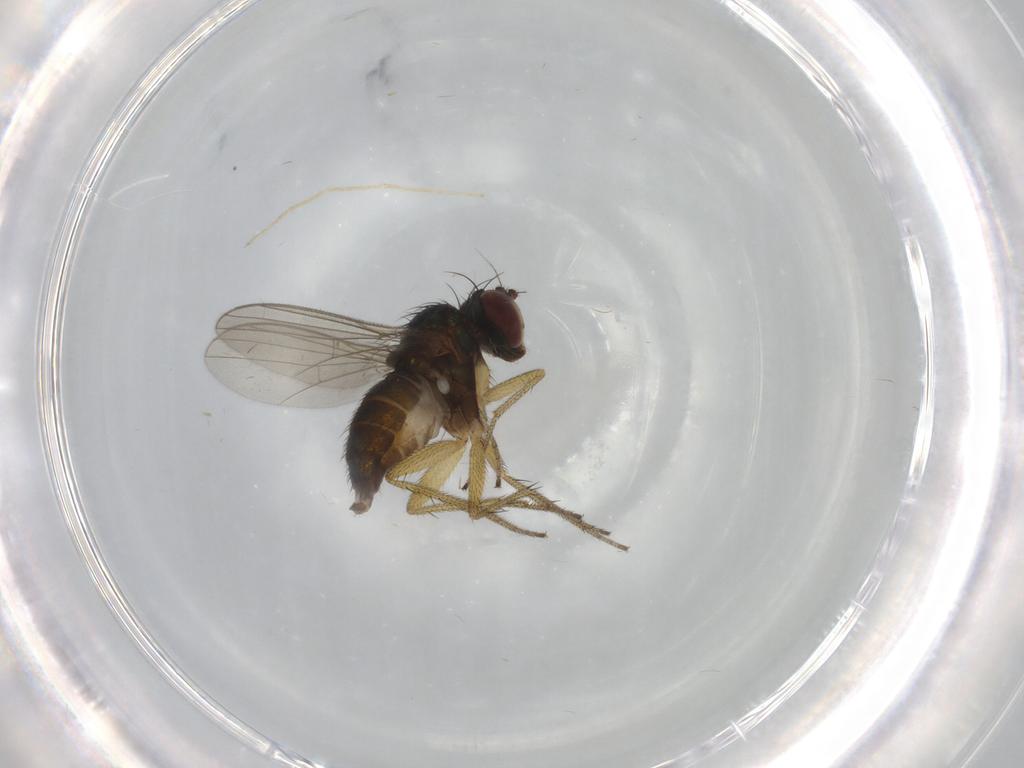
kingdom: Animalia
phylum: Arthropoda
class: Insecta
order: Diptera
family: Dolichopodidae
